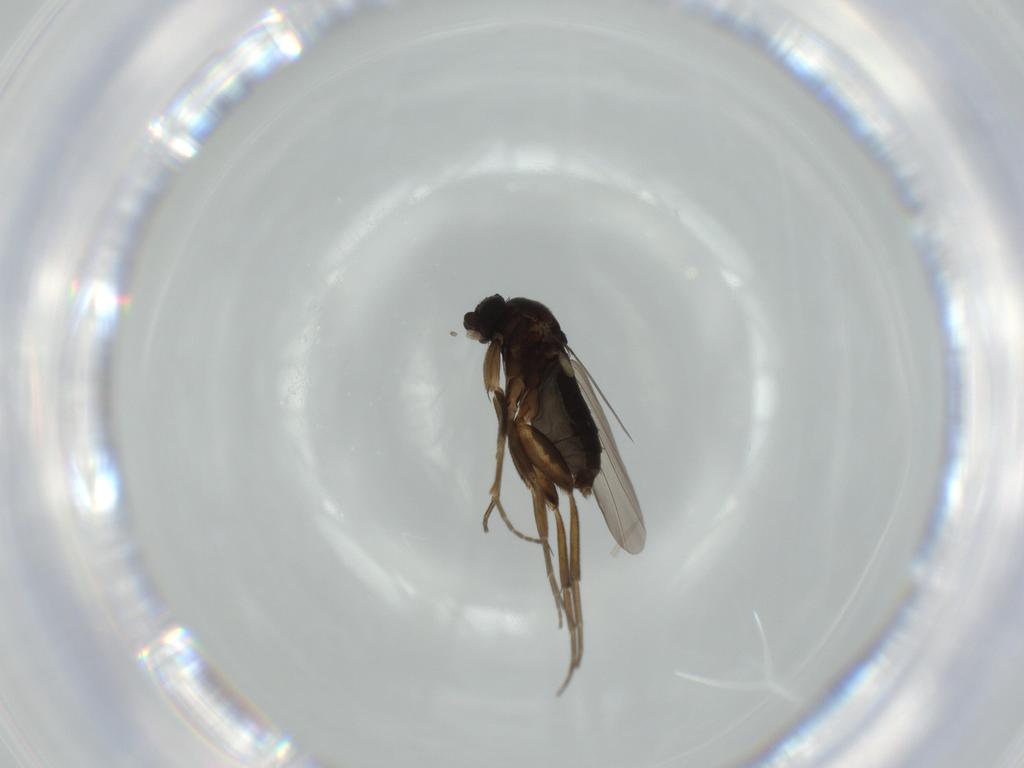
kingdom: Animalia
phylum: Arthropoda
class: Insecta
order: Diptera
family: Phoridae
